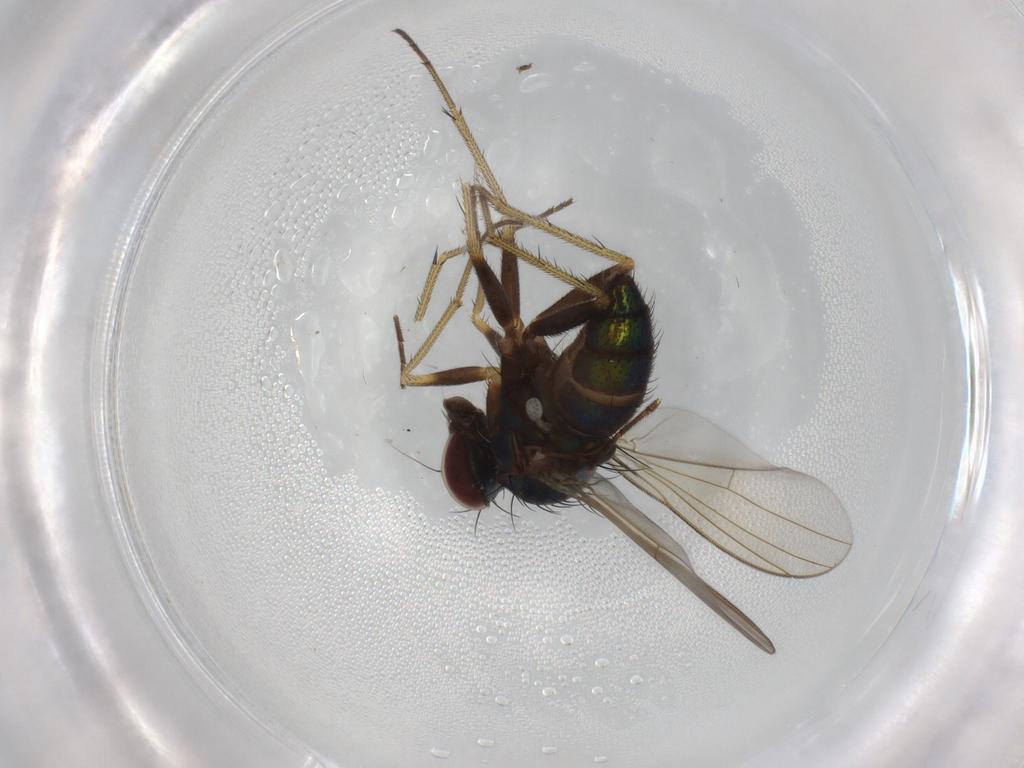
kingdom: Animalia
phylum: Arthropoda
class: Insecta
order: Diptera
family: Dolichopodidae
